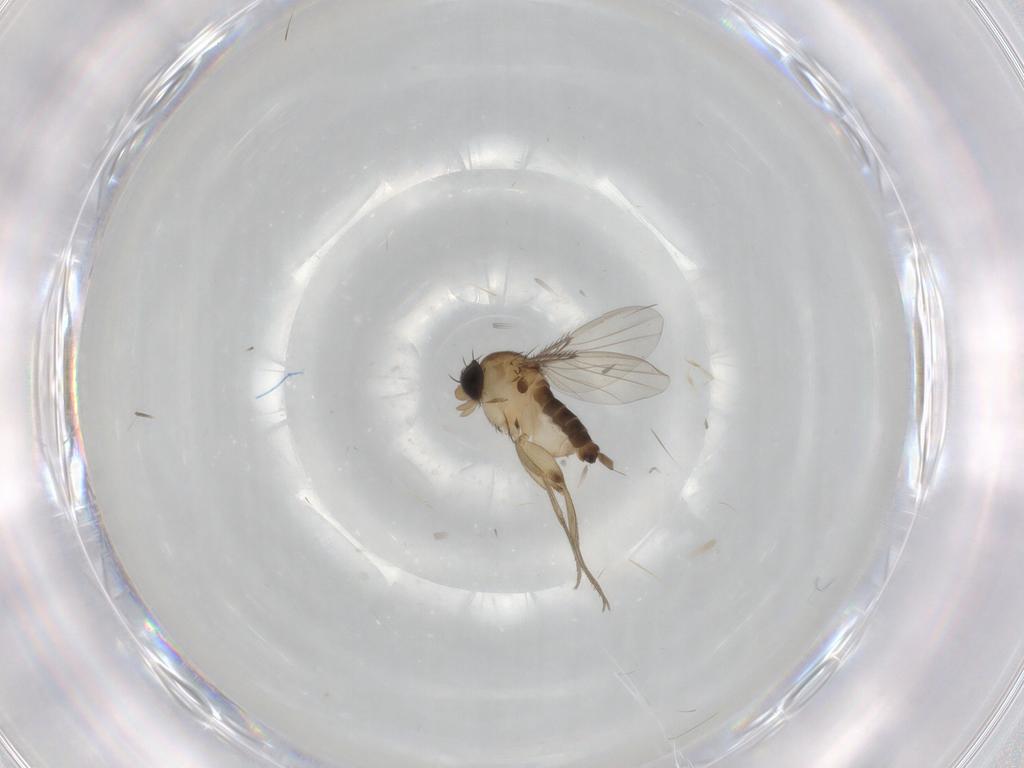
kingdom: Animalia
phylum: Arthropoda
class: Insecta
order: Diptera
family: Phoridae
